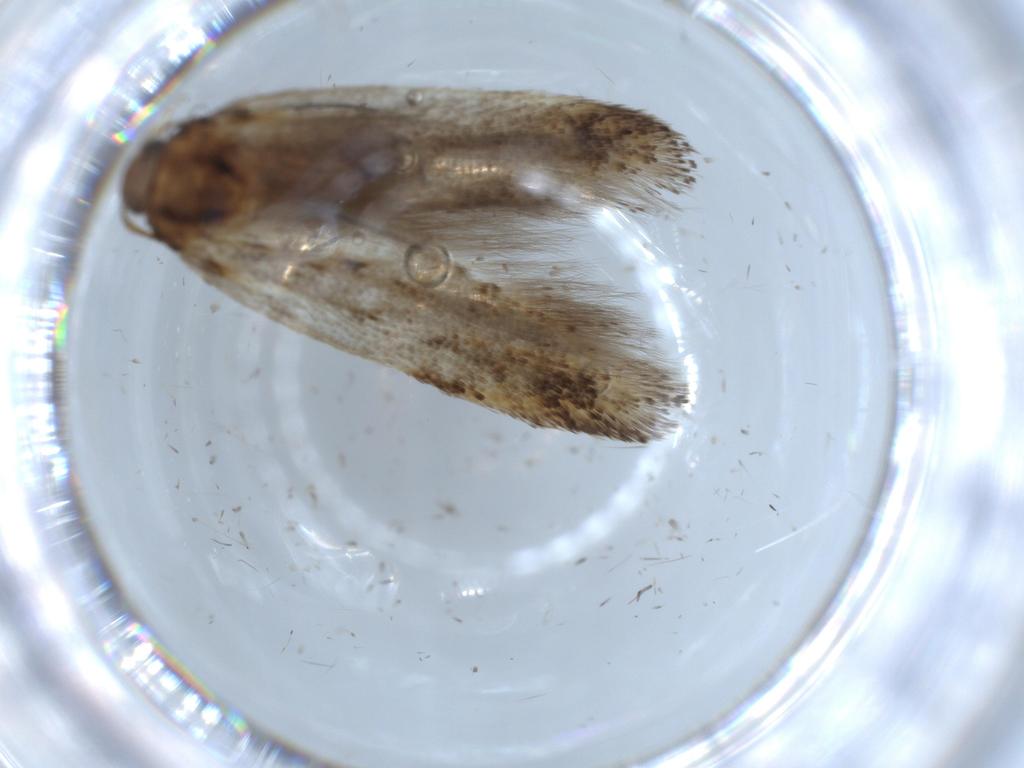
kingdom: Animalia
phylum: Arthropoda
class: Insecta
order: Lepidoptera
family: Gelechiidae
